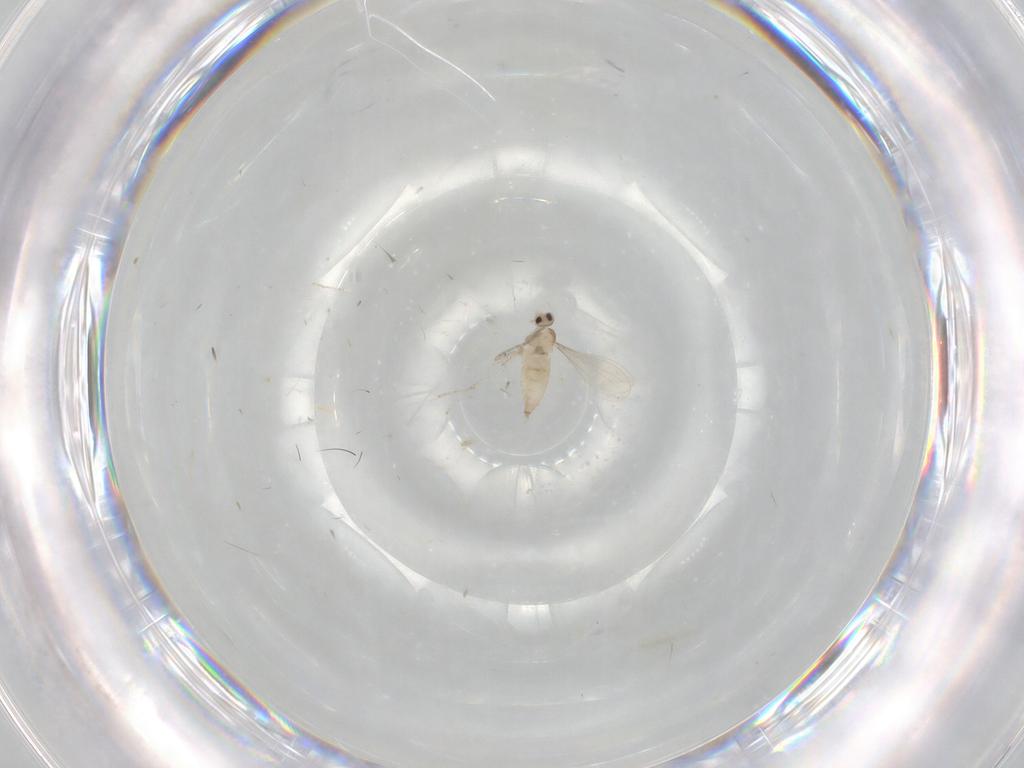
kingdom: Animalia
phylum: Arthropoda
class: Insecta
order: Diptera
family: Cecidomyiidae
